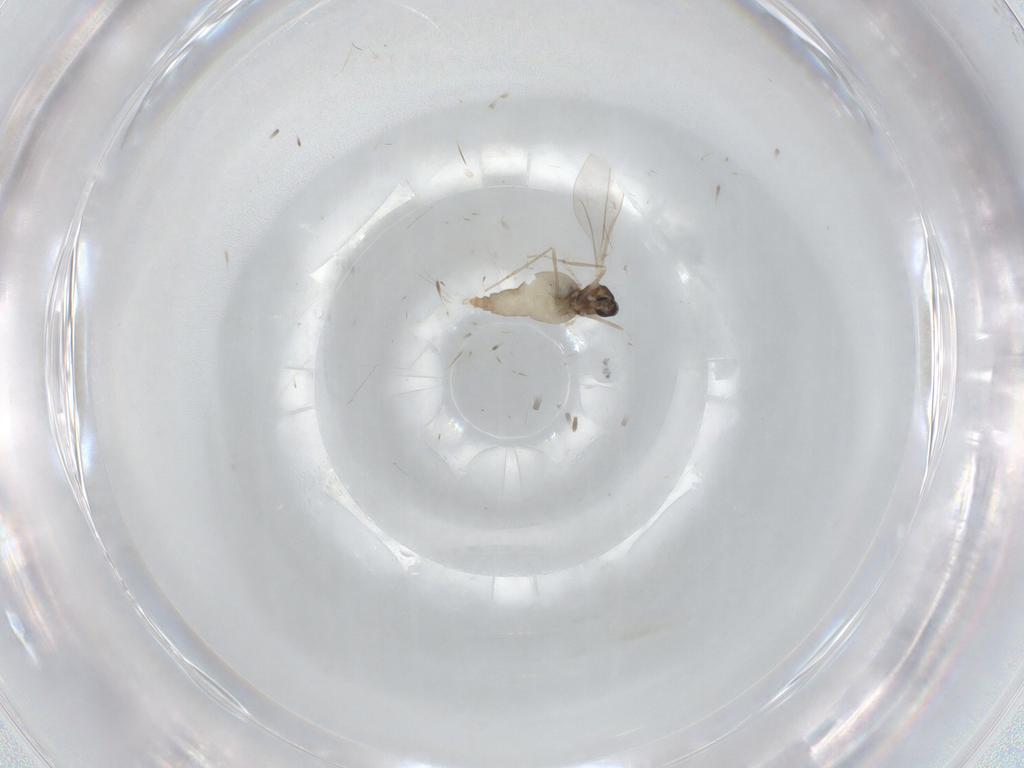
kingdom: Animalia
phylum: Arthropoda
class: Insecta
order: Diptera
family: Cecidomyiidae
